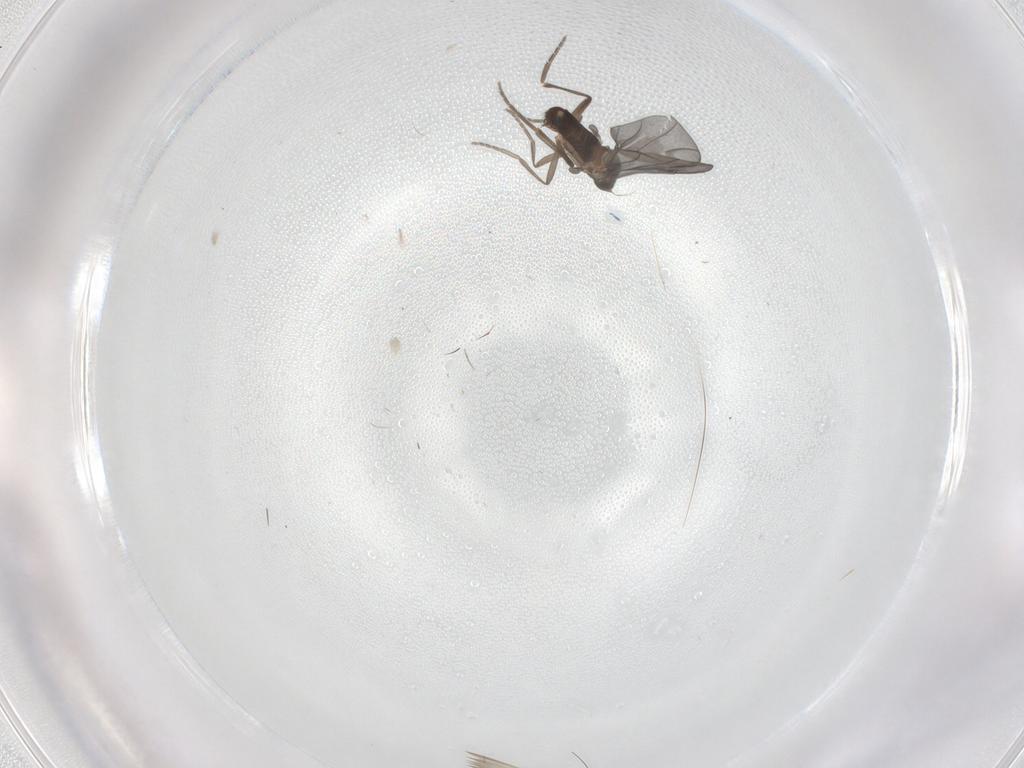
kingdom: Animalia
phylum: Arthropoda
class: Insecta
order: Diptera
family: Phoridae
